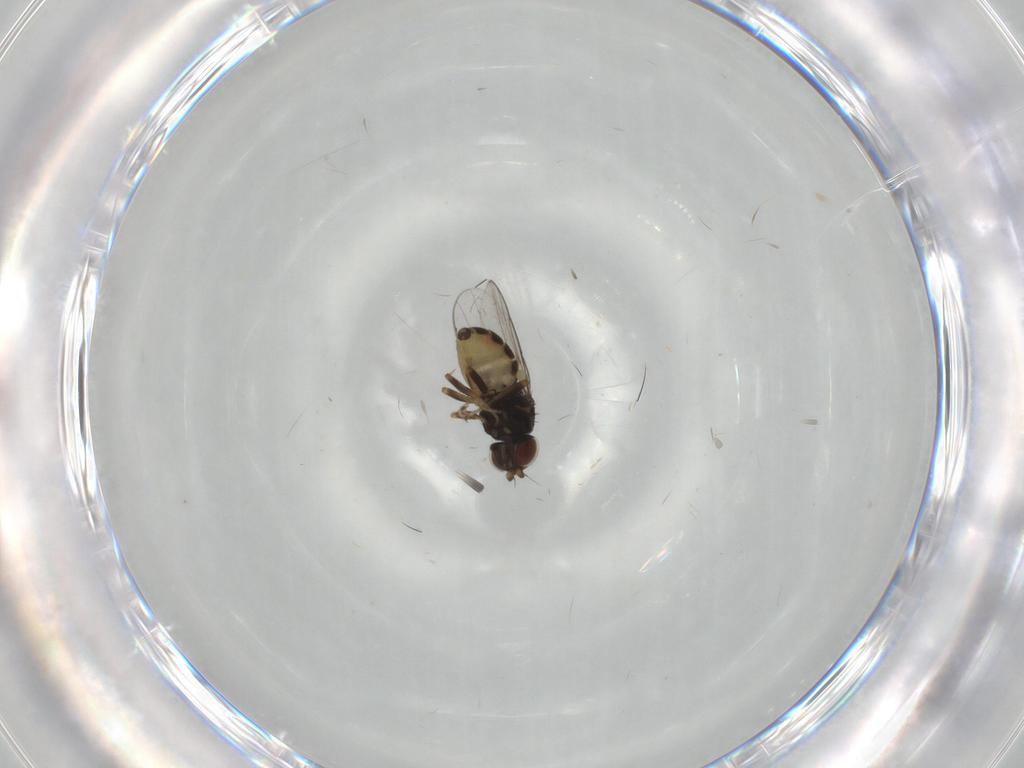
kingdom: Animalia
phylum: Arthropoda
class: Insecta
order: Diptera
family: Chloropidae
